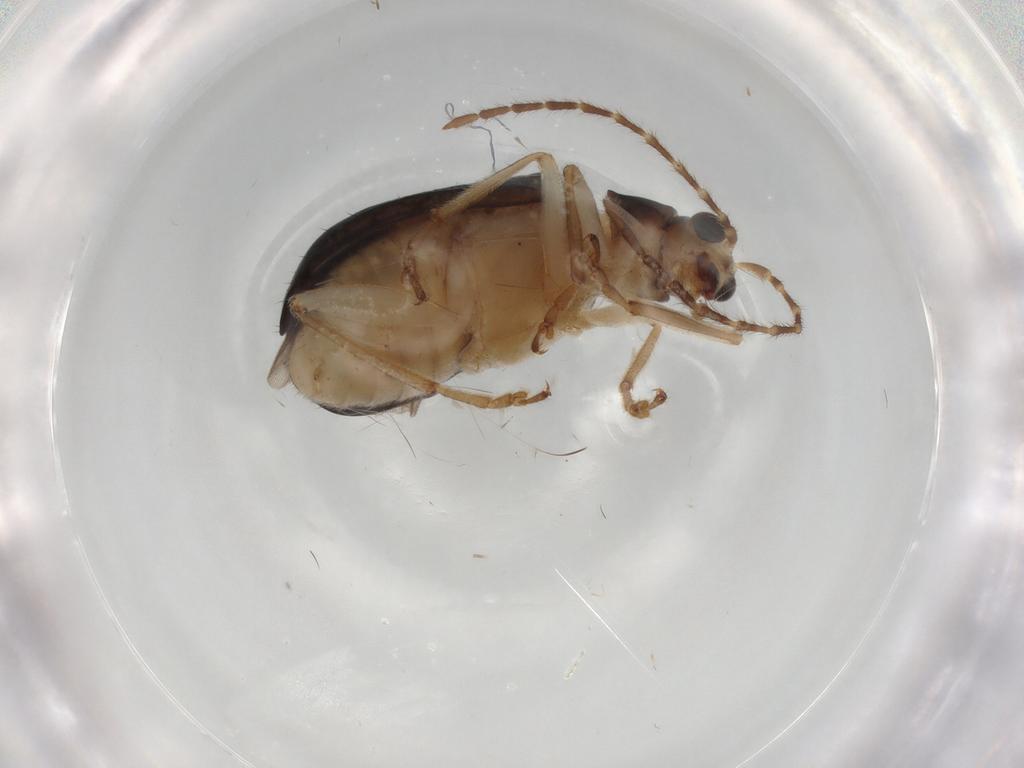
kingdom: Animalia
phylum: Arthropoda
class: Insecta
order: Coleoptera
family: Chrysomelidae
